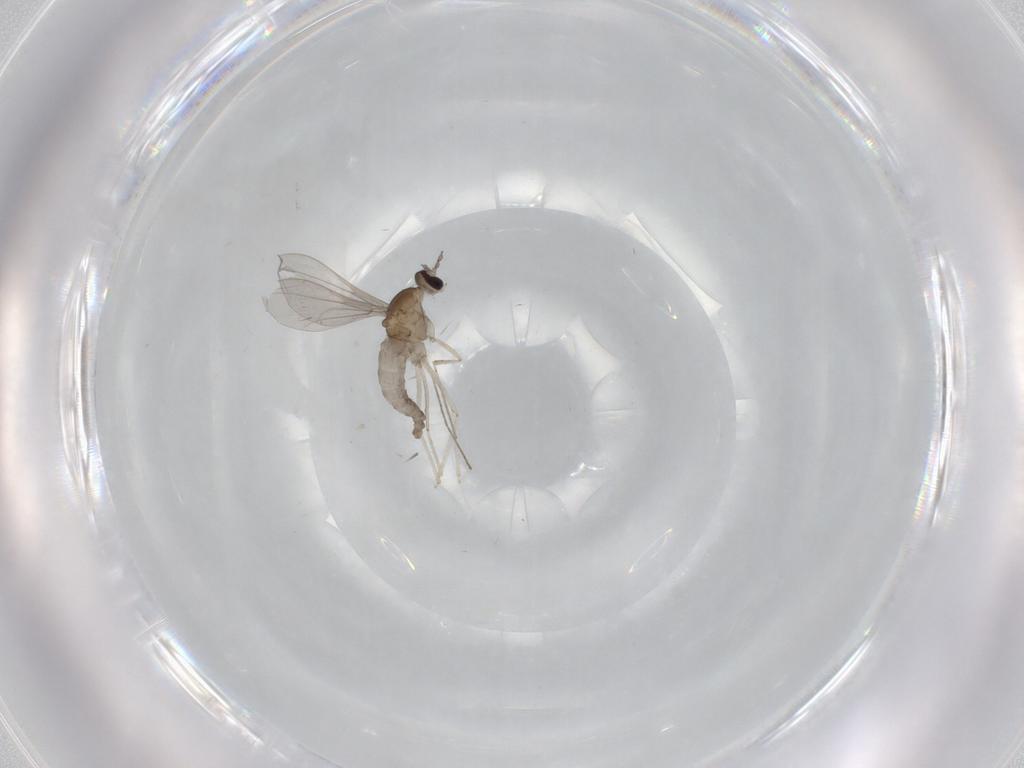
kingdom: Animalia
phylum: Arthropoda
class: Insecta
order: Diptera
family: Cecidomyiidae
